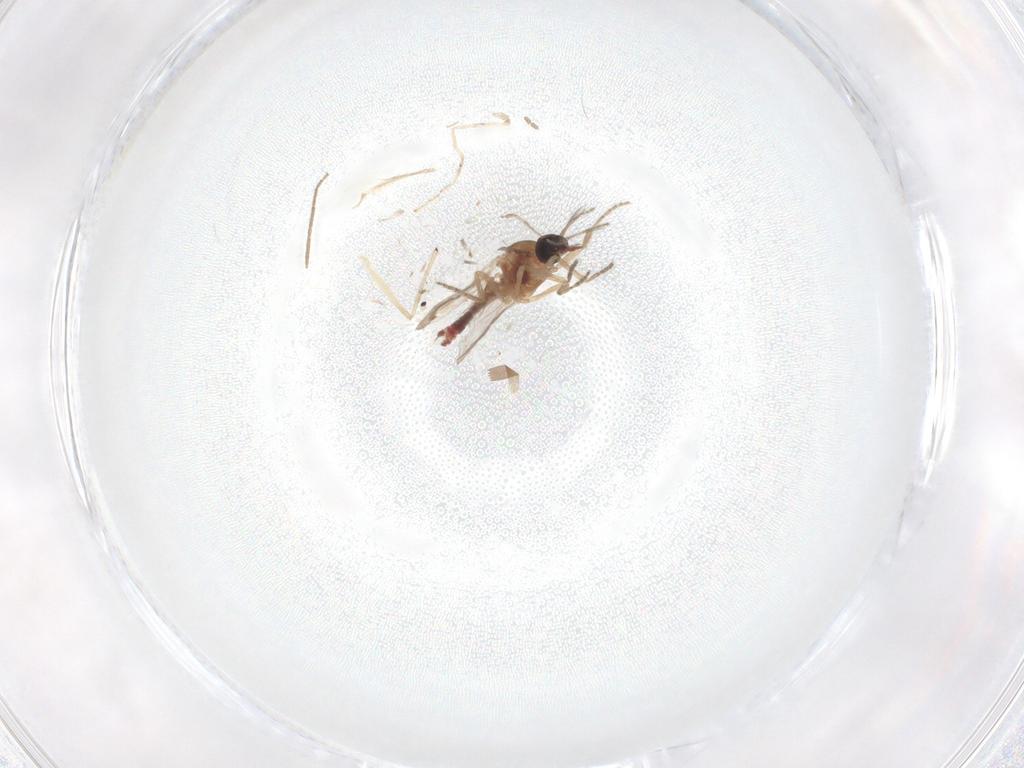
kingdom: Animalia
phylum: Arthropoda
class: Insecta
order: Diptera
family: Chironomidae
